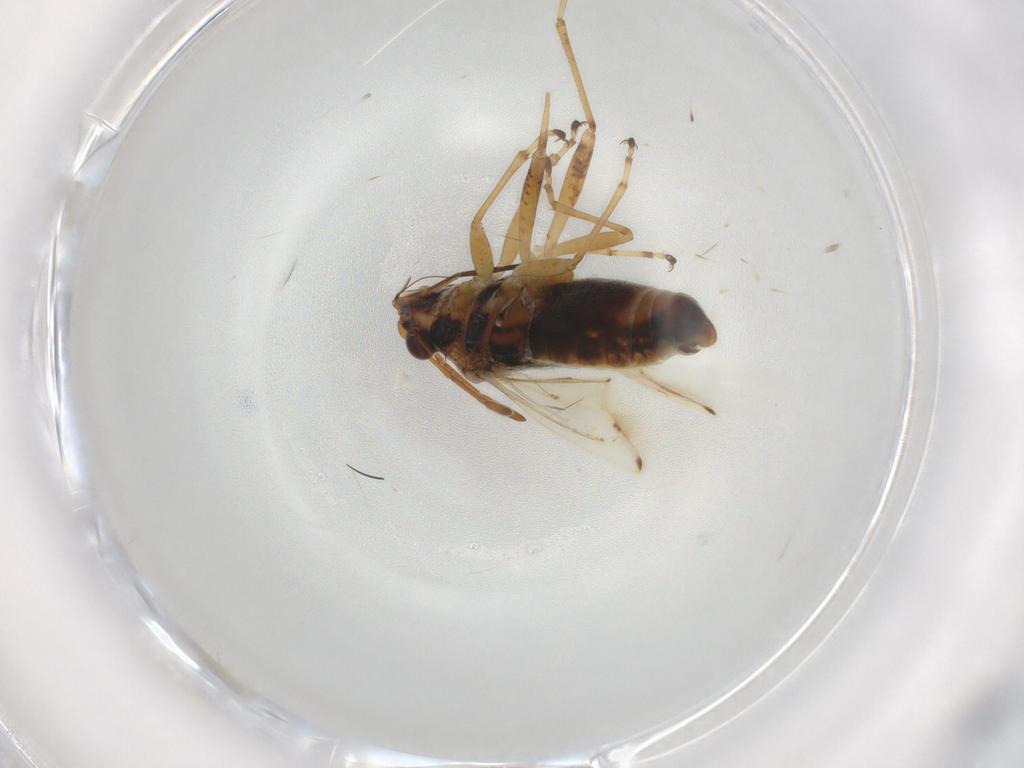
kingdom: Animalia
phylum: Arthropoda
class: Insecta
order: Hemiptera
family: Lygaeidae
